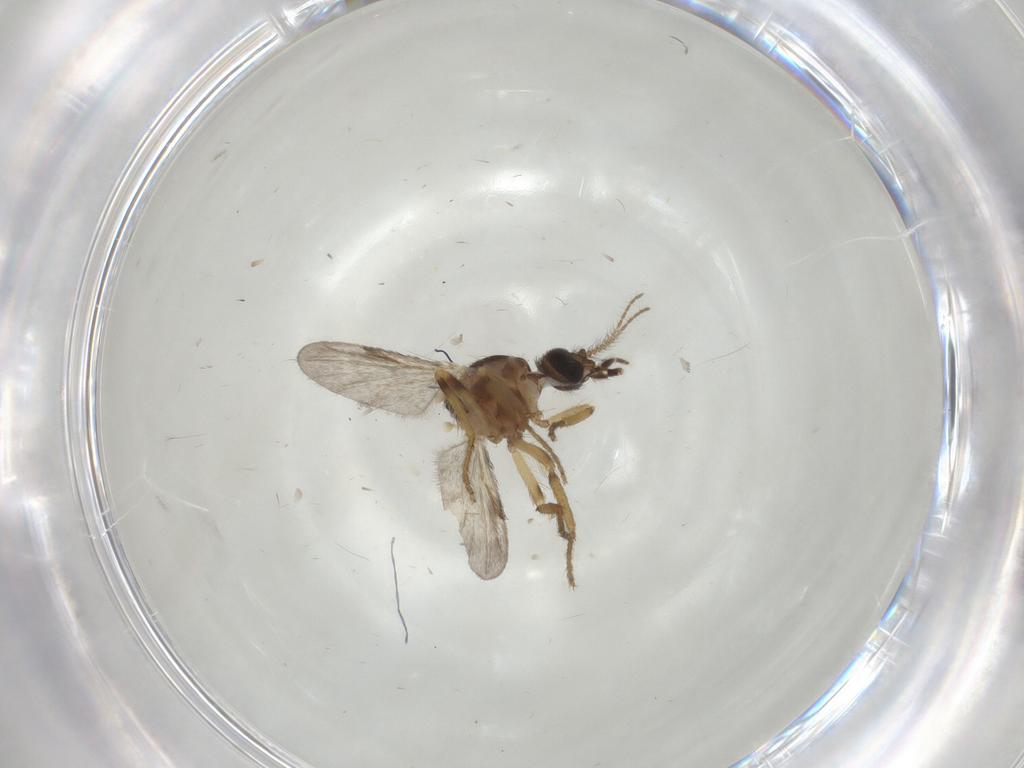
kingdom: Animalia
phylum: Arthropoda
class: Insecta
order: Diptera
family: Ceratopogonidae
